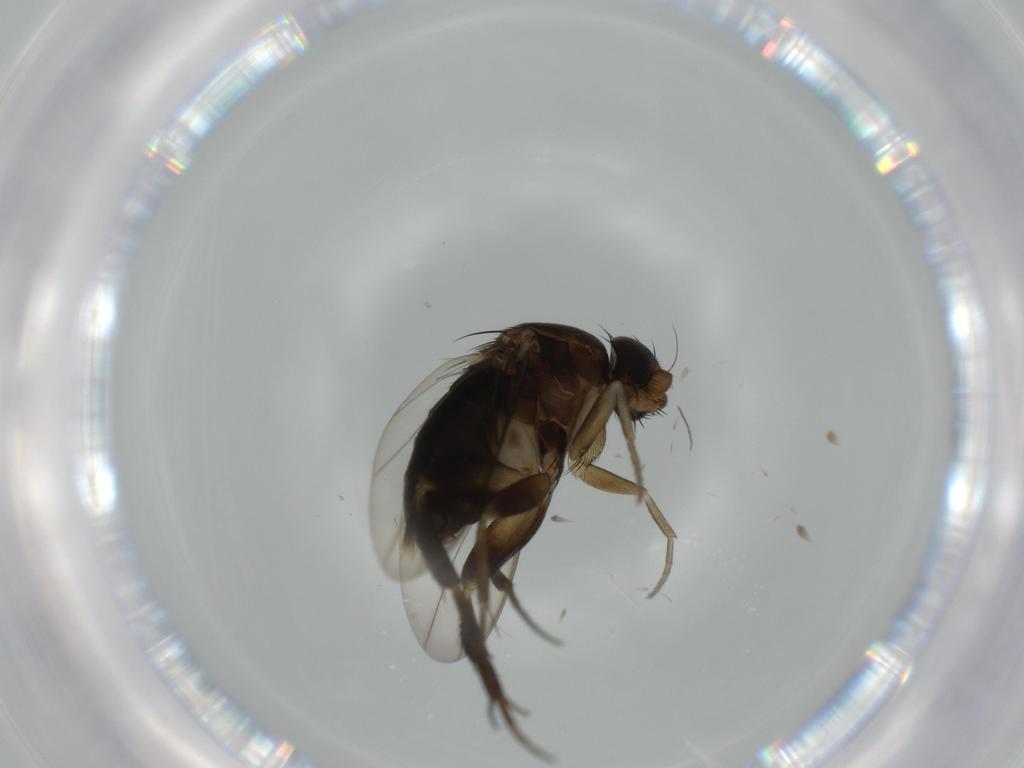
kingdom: Animalia
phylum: Arthropoda
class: Insecta
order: Diptera
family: Phoridae
